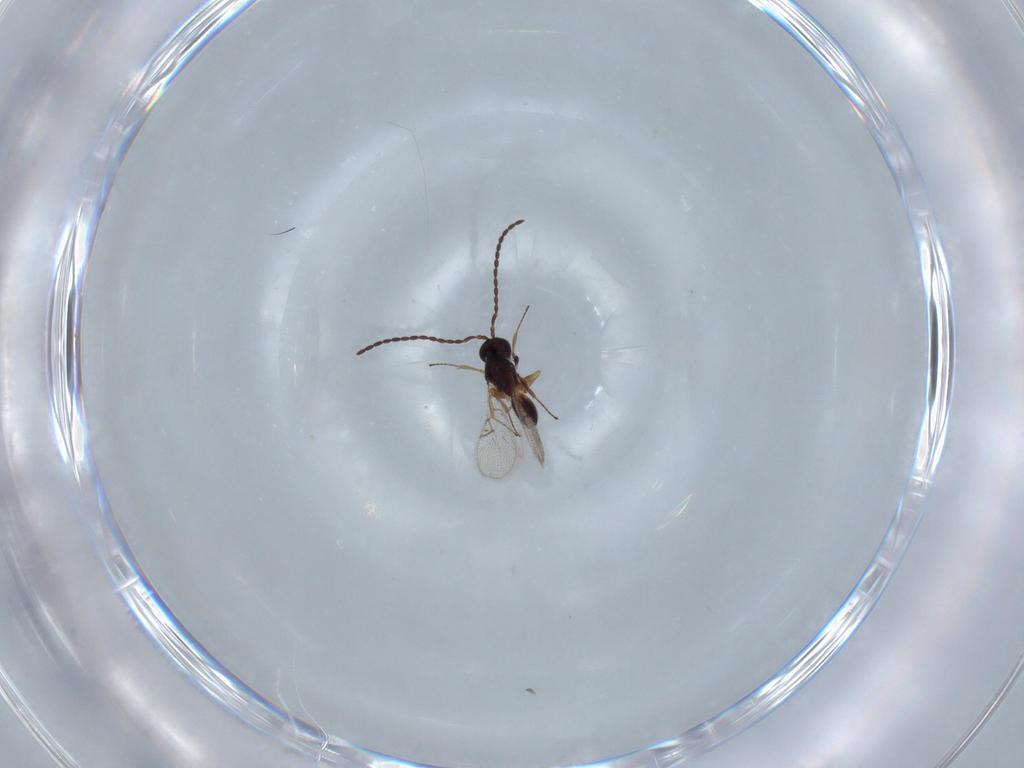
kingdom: Animalia
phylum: Arthropoda
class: Insecta
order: Hymenoptera
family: Figitidae
